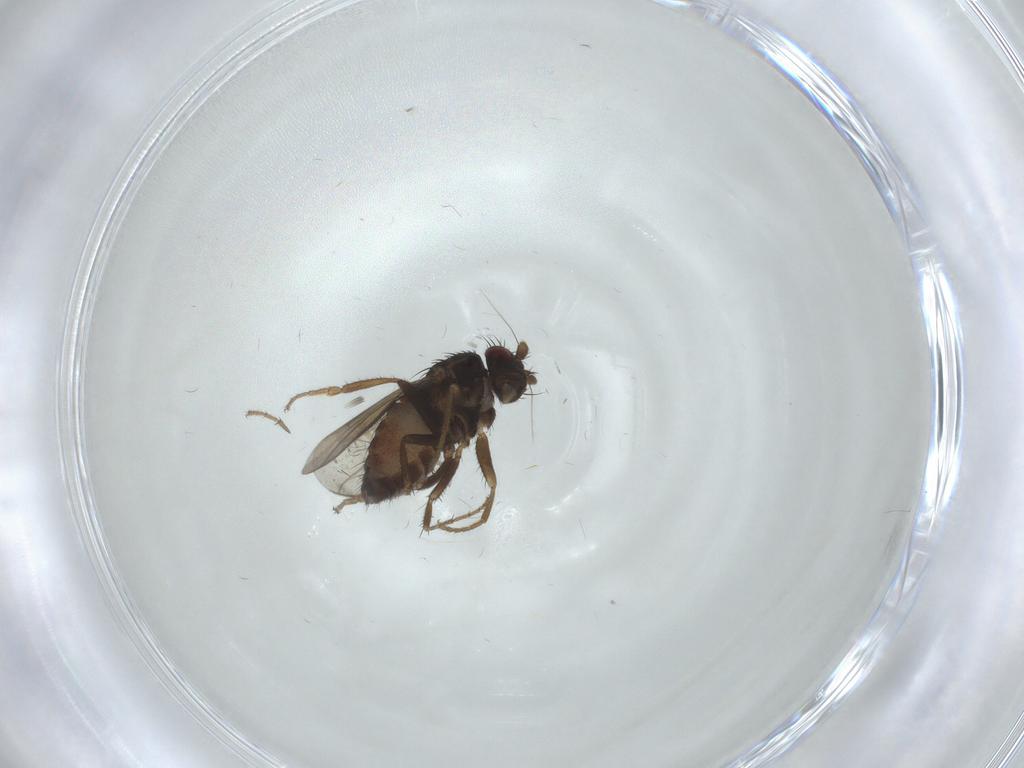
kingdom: Animalia
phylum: Arthropoda
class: Insecta
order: Diptera
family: Sphaeroceridae
